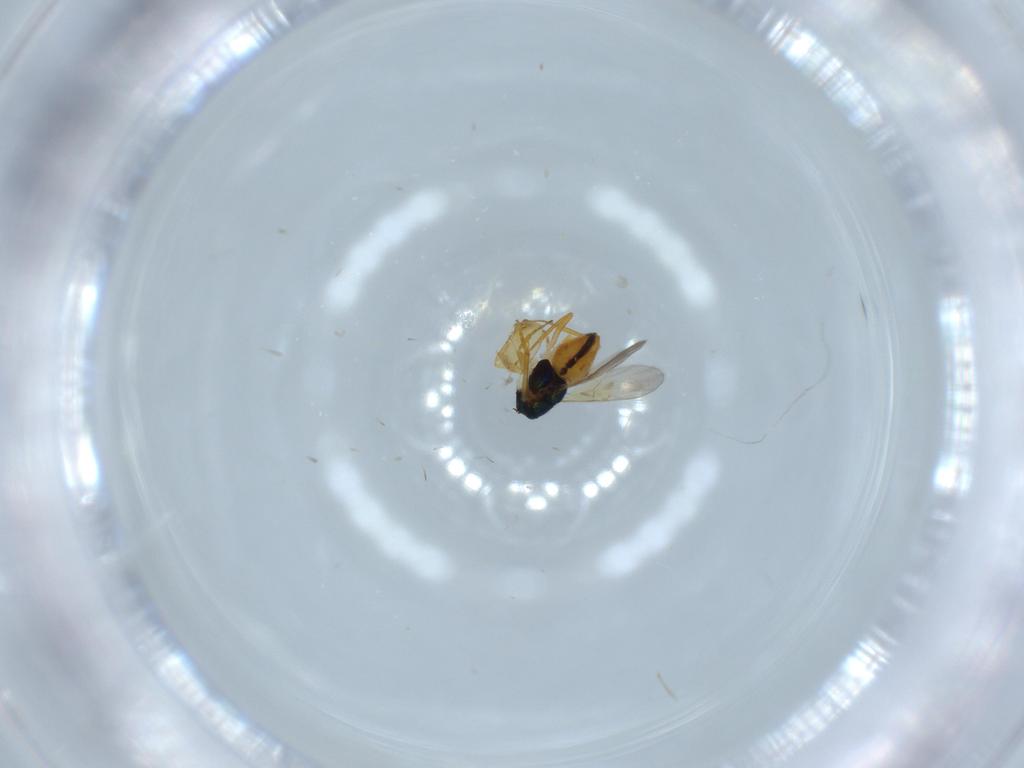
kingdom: Animalia
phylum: Arthropoda
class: Insecta
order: Diptera
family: Cecidomyiidae
